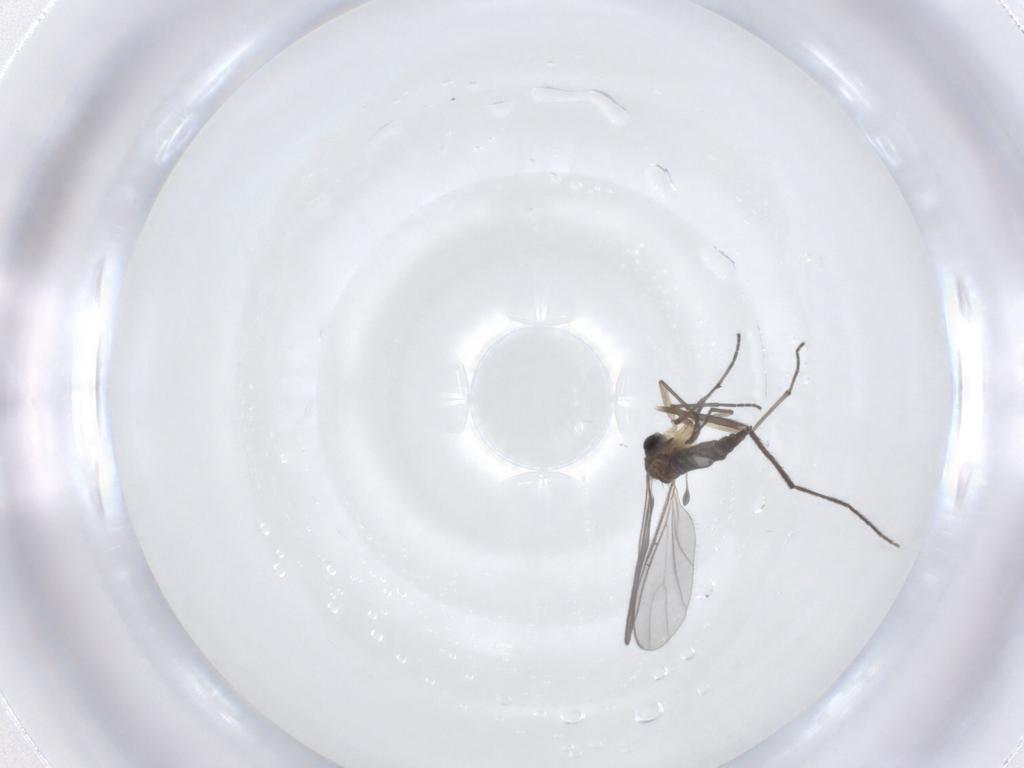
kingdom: Animalia
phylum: Arthropoda
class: Insecta
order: Diptera
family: Sciaridae
